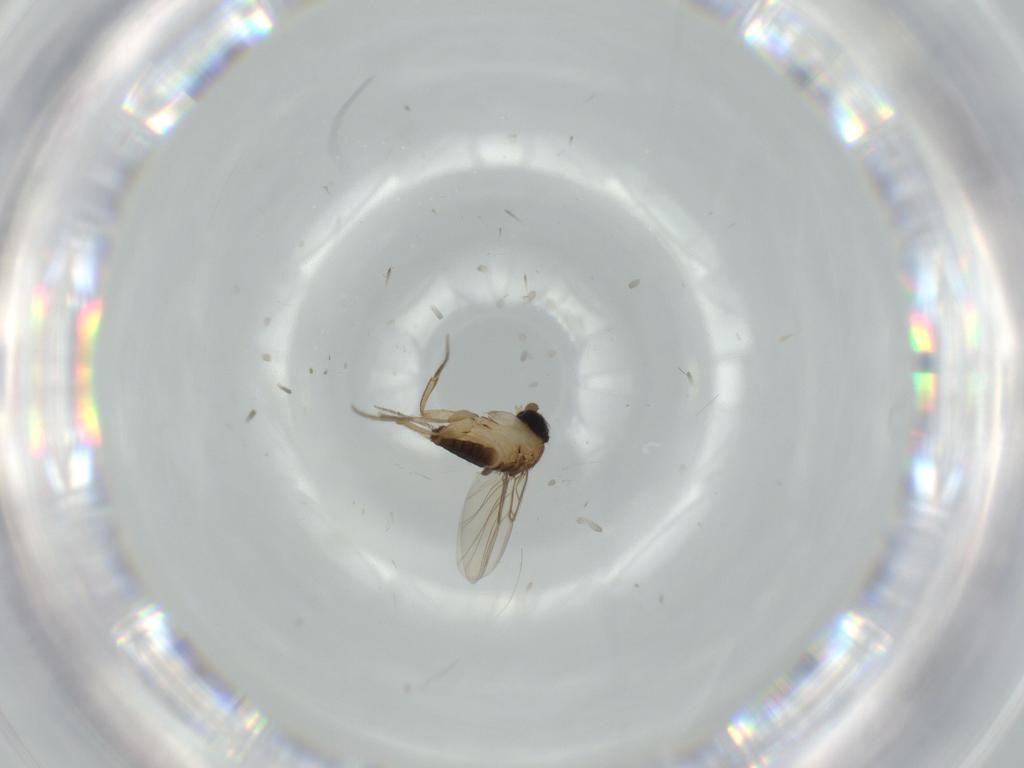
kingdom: Animalia
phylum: Arthropoda
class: Insecta
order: Diptera
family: Phoridae
